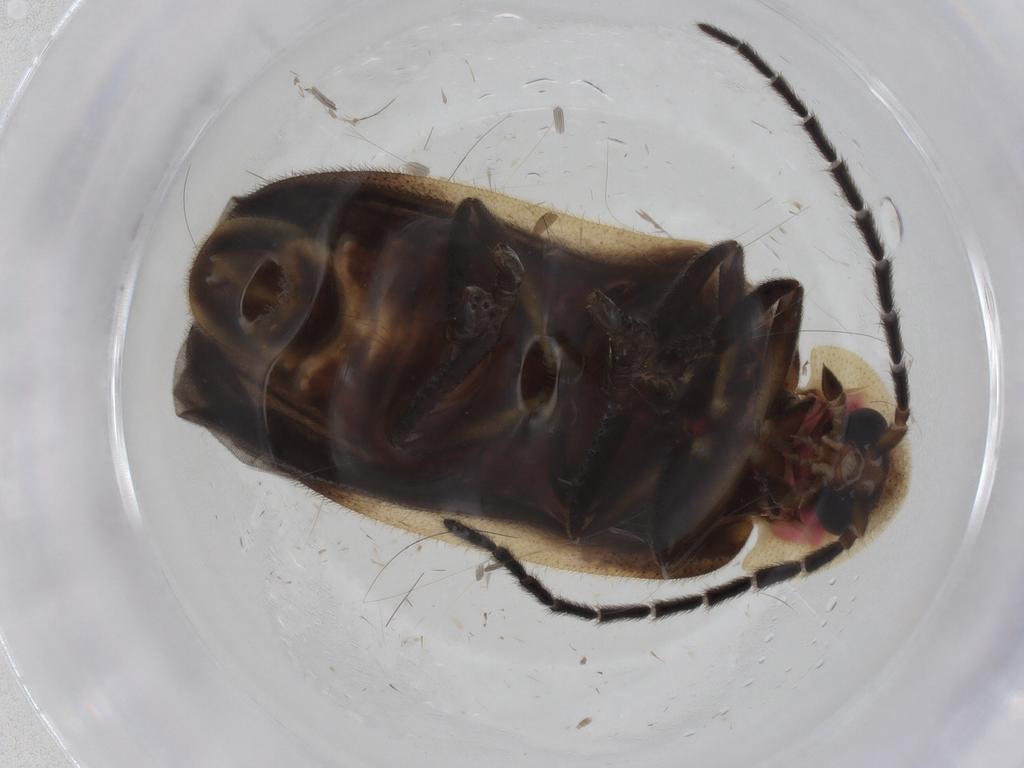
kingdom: Animalia
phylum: Arthropoda
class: Insecta
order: Coleoptera
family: Lampyridae
